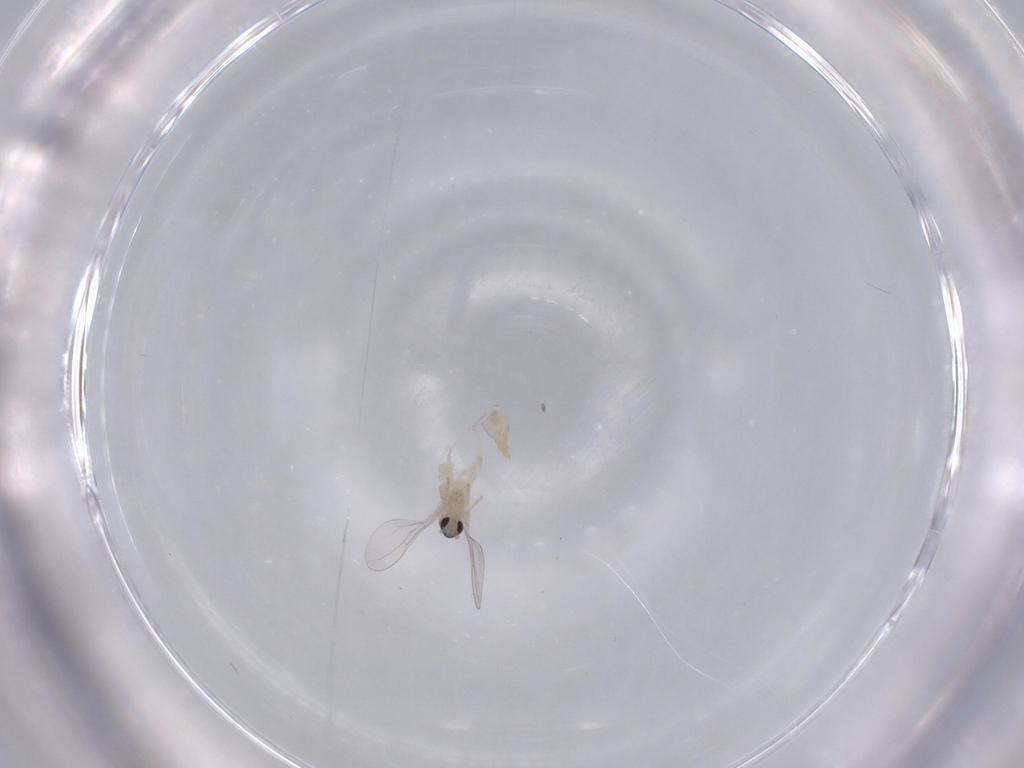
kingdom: Animalia
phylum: Arthropoda
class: Insecta
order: Diptera
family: Cecidomyiidae
